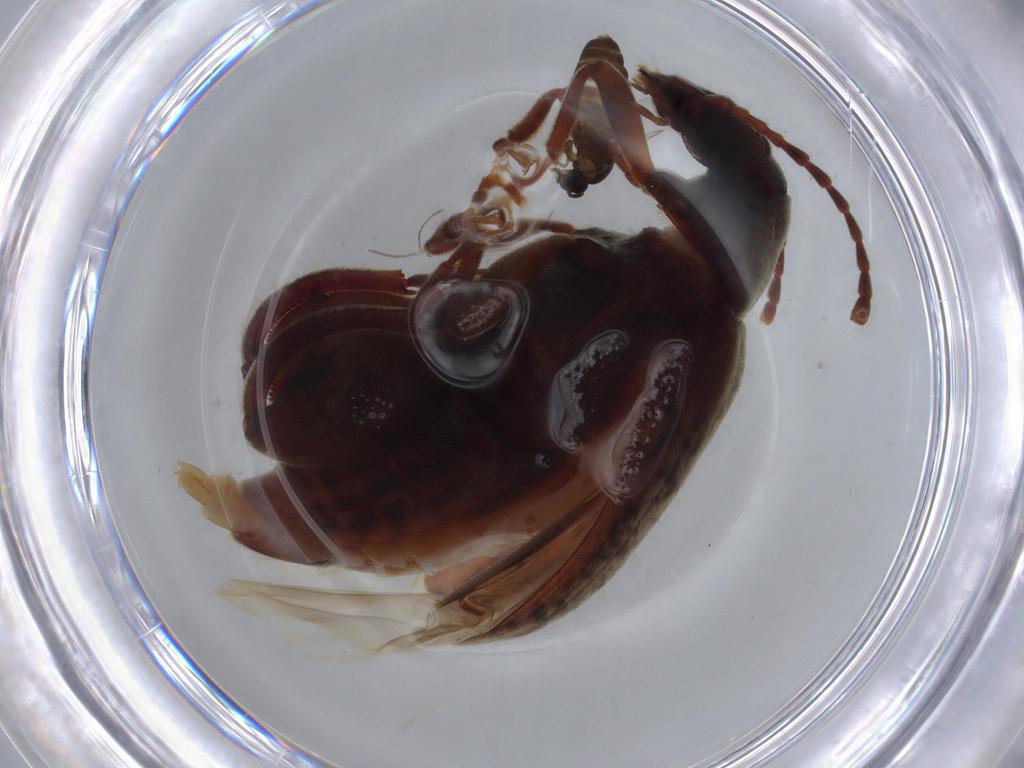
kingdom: Animalia
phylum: Arthropoda
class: Insecta
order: Coleoptera
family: Chrysomelidae
